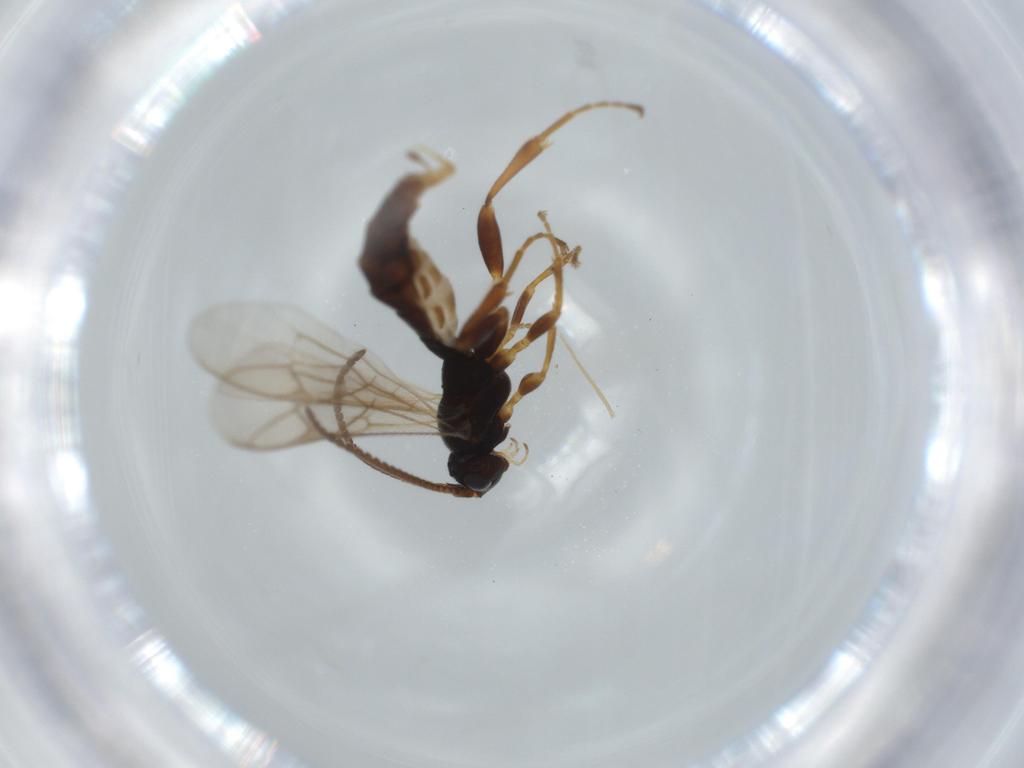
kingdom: Animalia
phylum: Arthropoda
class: Insecta
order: Hymenoptera
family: Ichneumonidae
